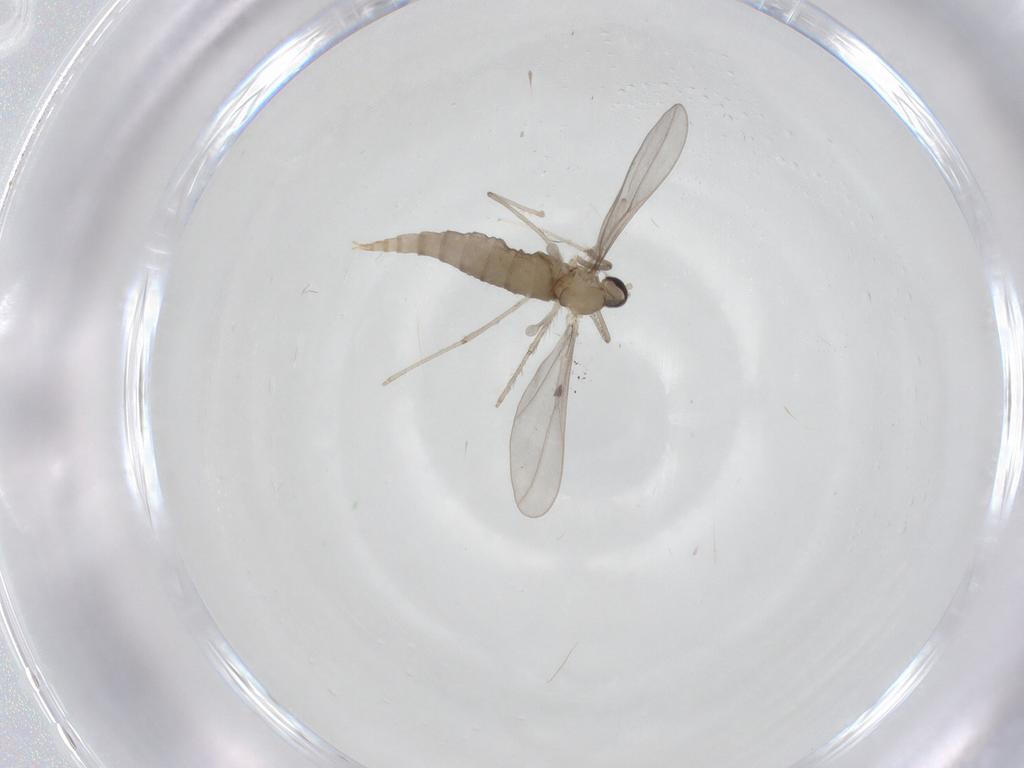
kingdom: Animalia
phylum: Arthropoda
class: Insecta
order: Diptera
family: Cecidomyiidae
